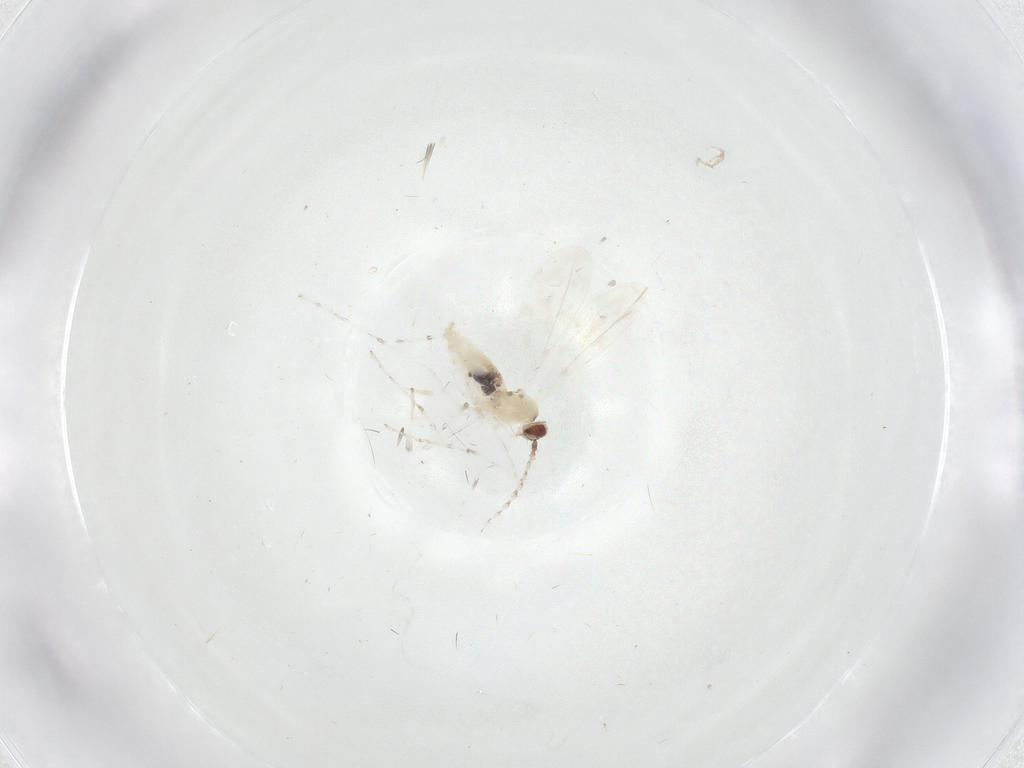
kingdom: Animalia
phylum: Arthropoda
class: Insecta
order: Diptera
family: Cecidomyiidae
